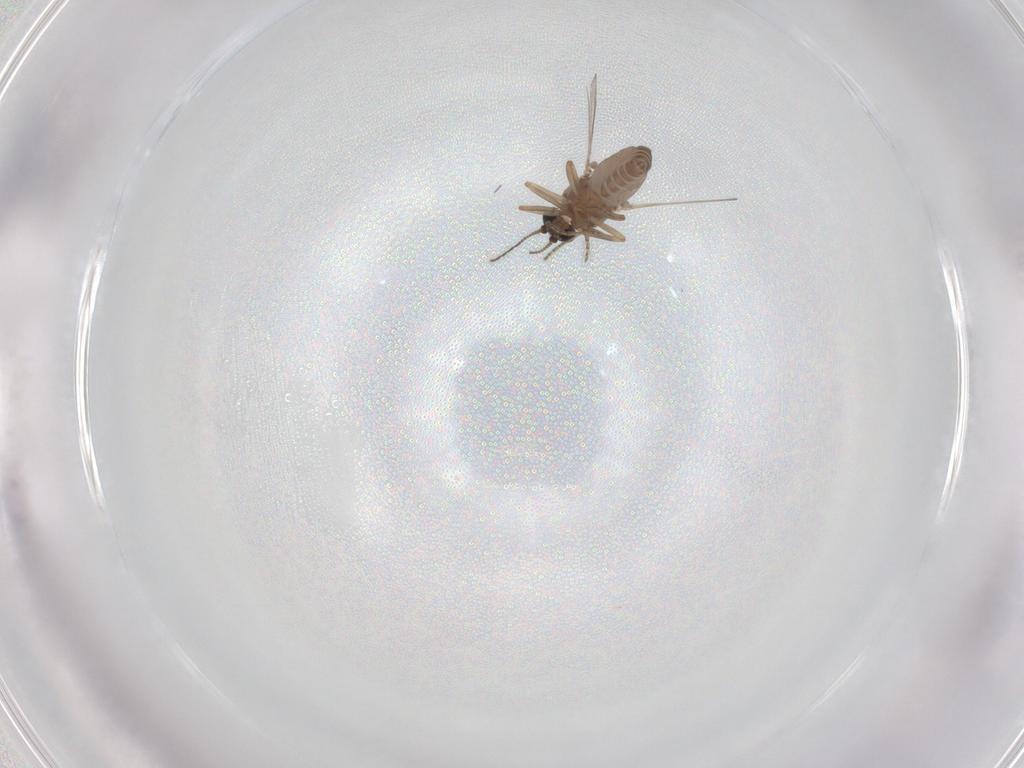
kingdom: Animalia
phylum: Arthropoda
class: Insecta
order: Diptera
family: Ceratopogonidae
